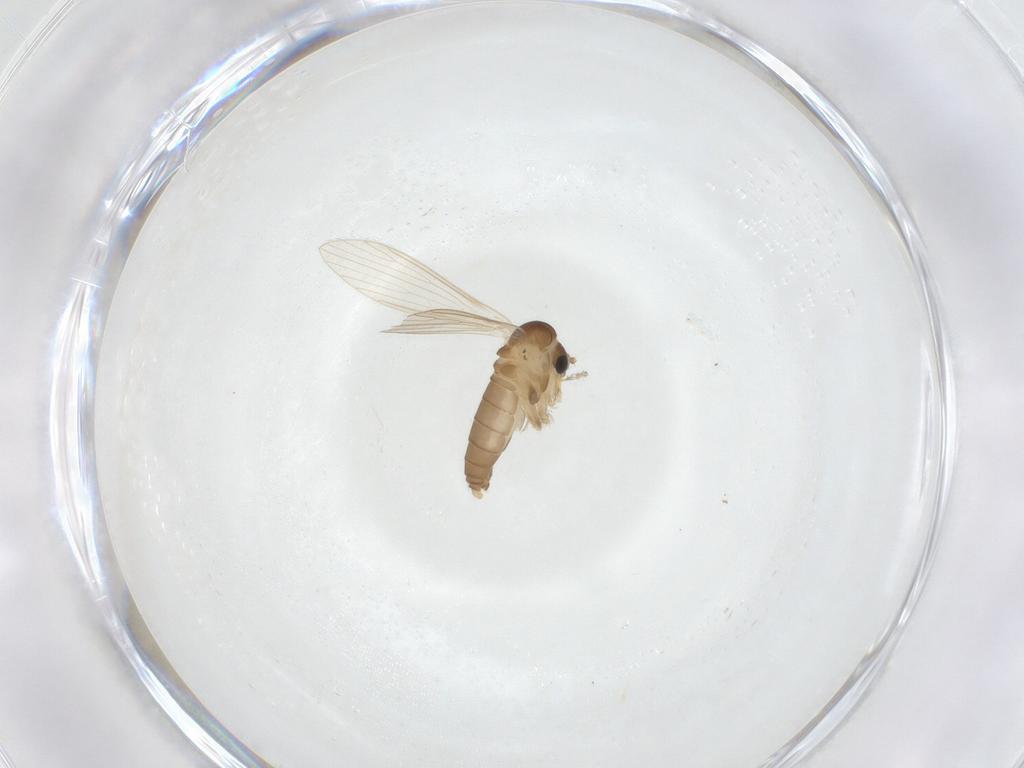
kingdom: Animalia
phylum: Arthropoda
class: Insecta
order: Diptera
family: Psychodidae
